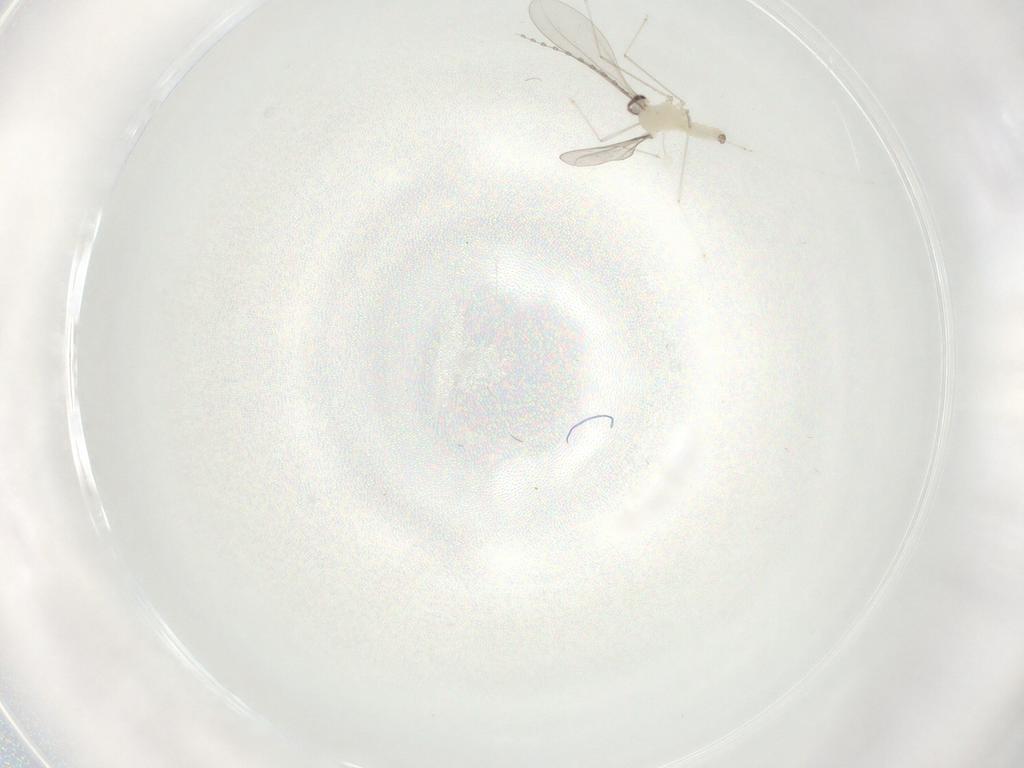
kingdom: Animalia
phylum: Arthropoda
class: Insecta
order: Diptera
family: Cecidomyiidae
